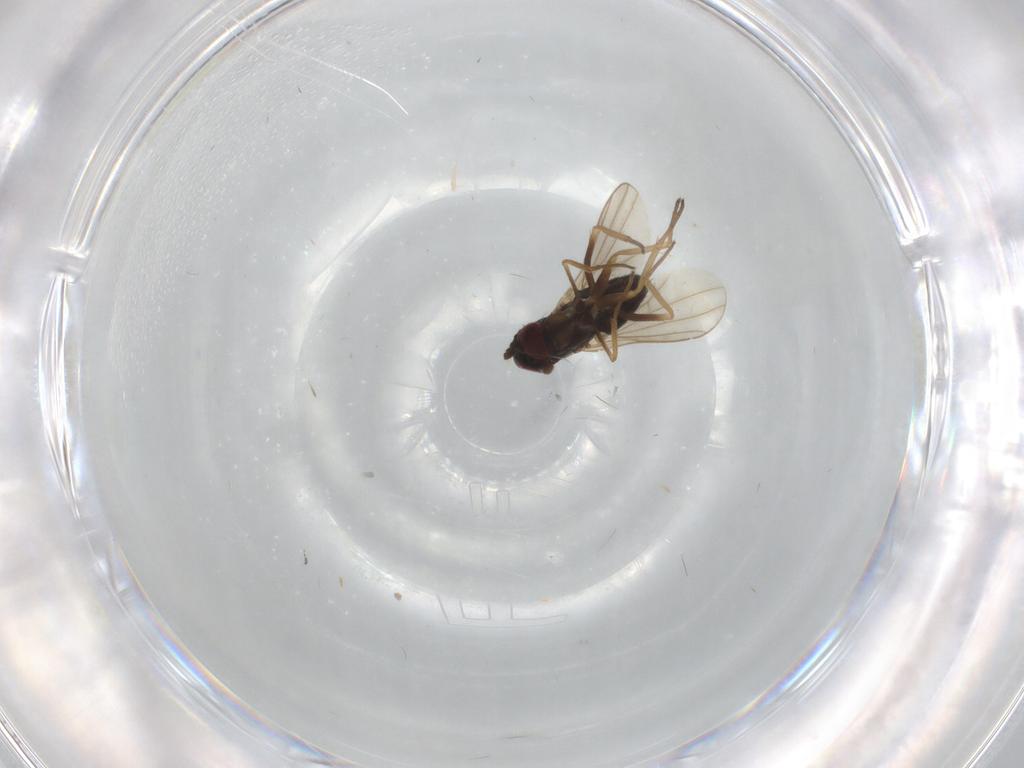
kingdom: Animalia
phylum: Arthropoda
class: Insecta
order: Diptera
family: Dolichopodidae
